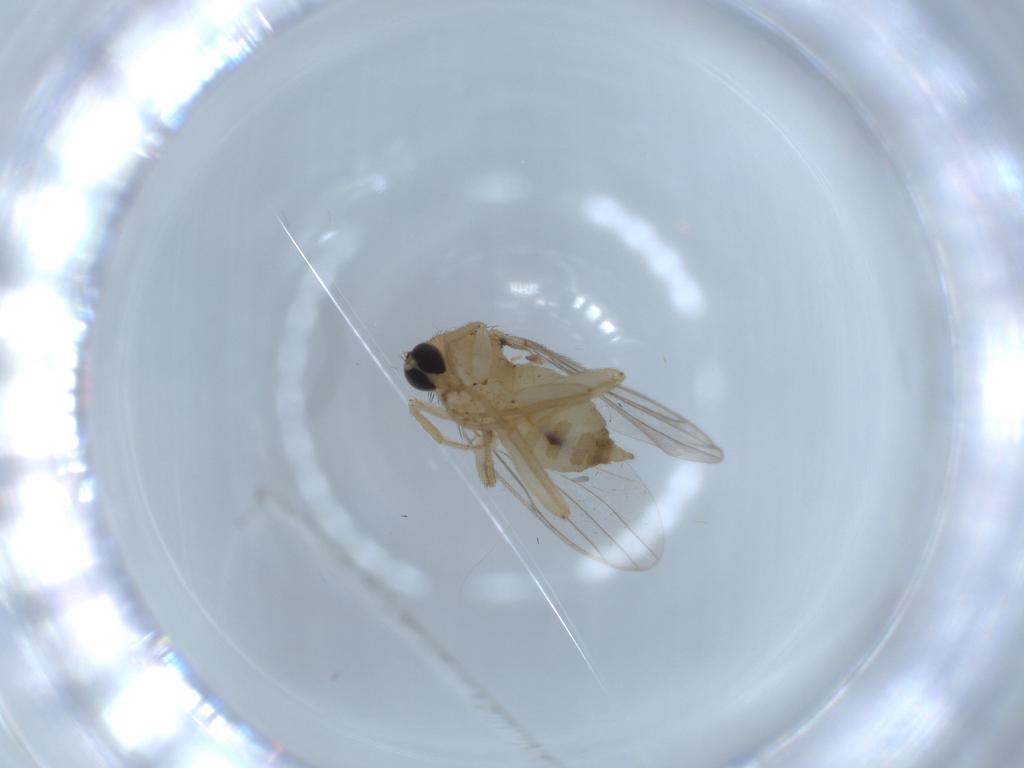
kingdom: Animalia
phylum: Arthropoda
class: Insecta
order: Diptera
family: Hybotidae
